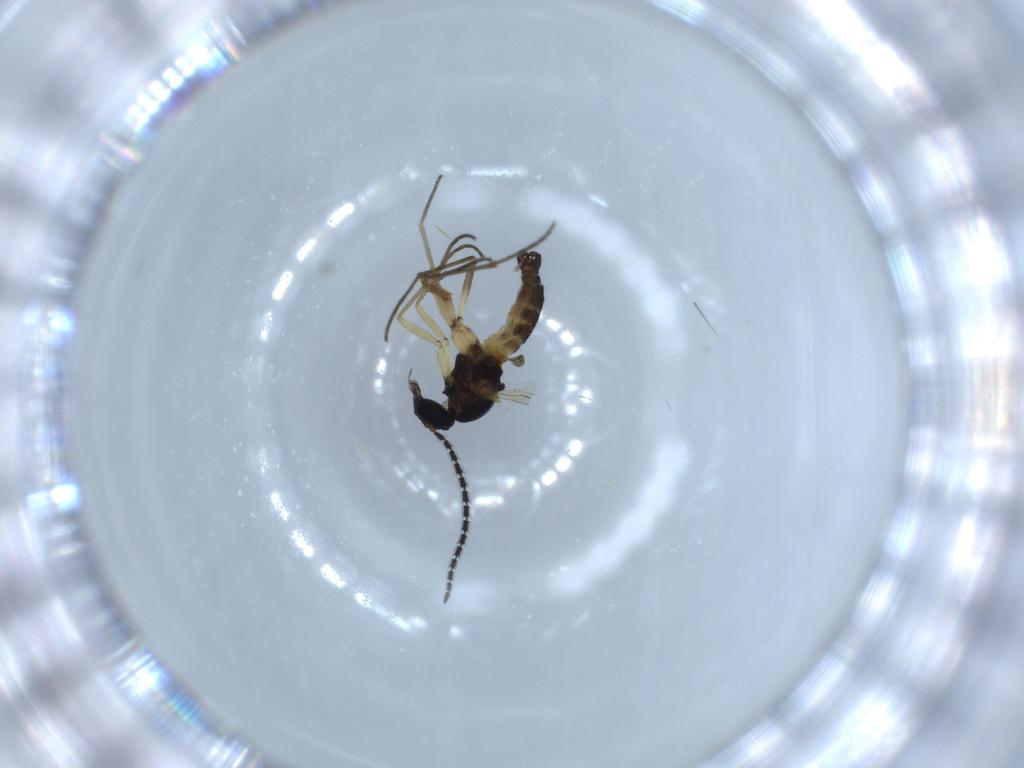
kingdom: Animalia
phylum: Arthropoda
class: Insecta
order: Diptera
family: Sciaridae
